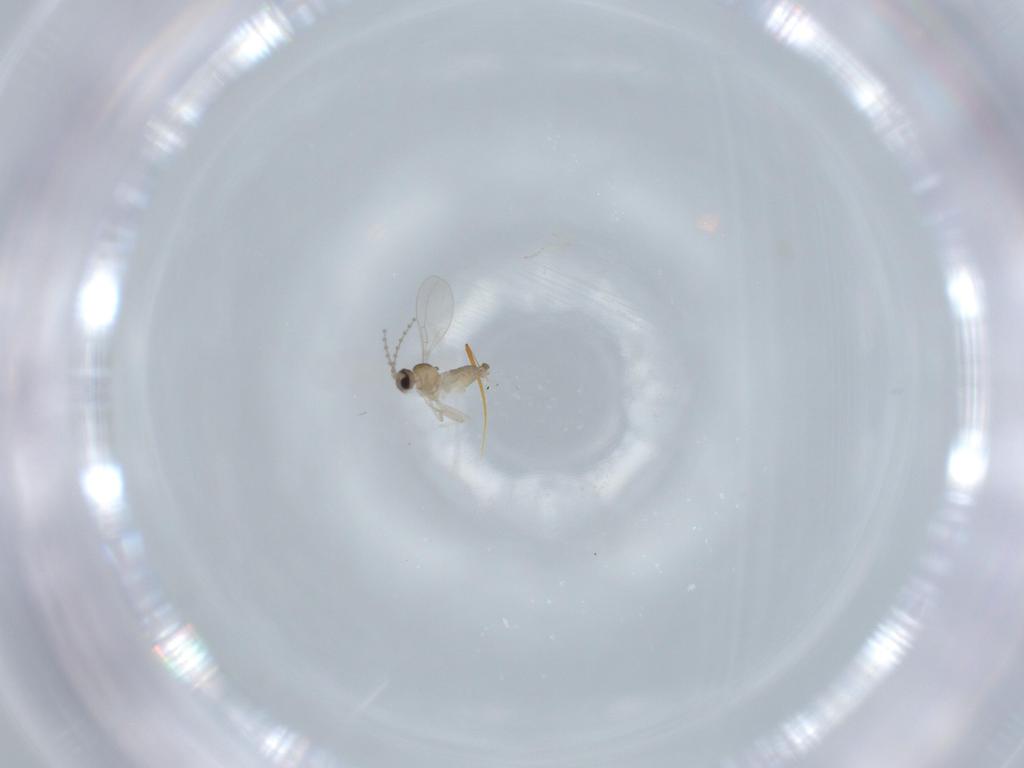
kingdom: Animalia
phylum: Arthropoda
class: Insecta
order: Diptera
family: Cecidomyiidae
